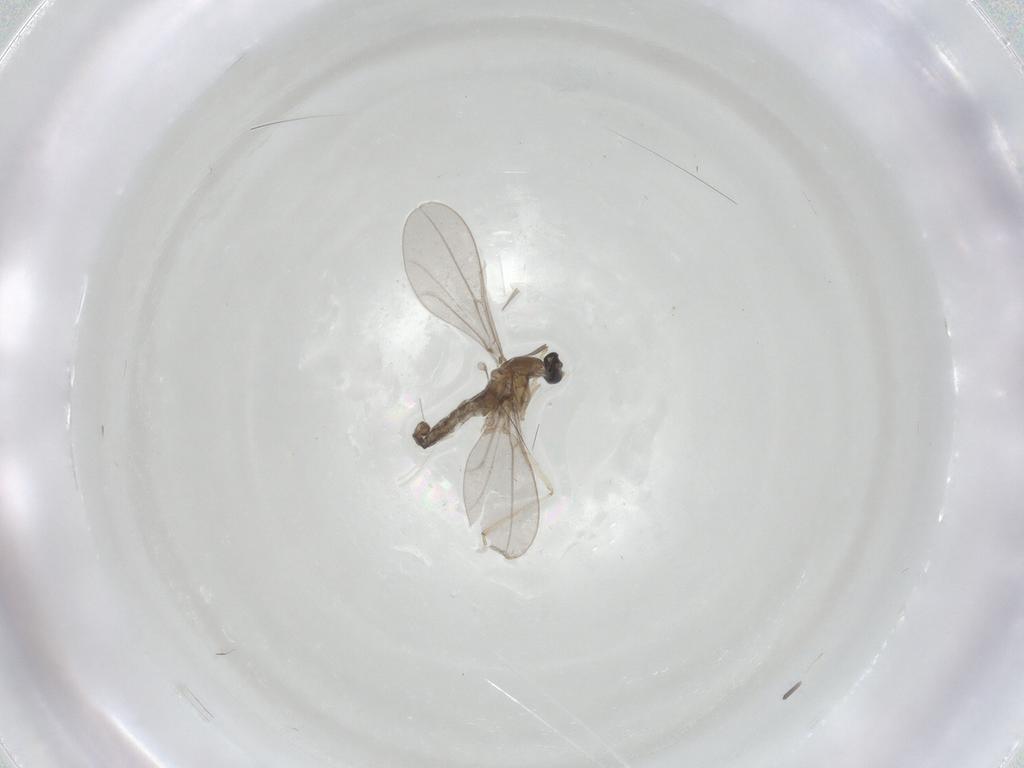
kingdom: Animalia
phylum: Arthropoda
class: Insecta
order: Diptera
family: Cecidomyiidae
